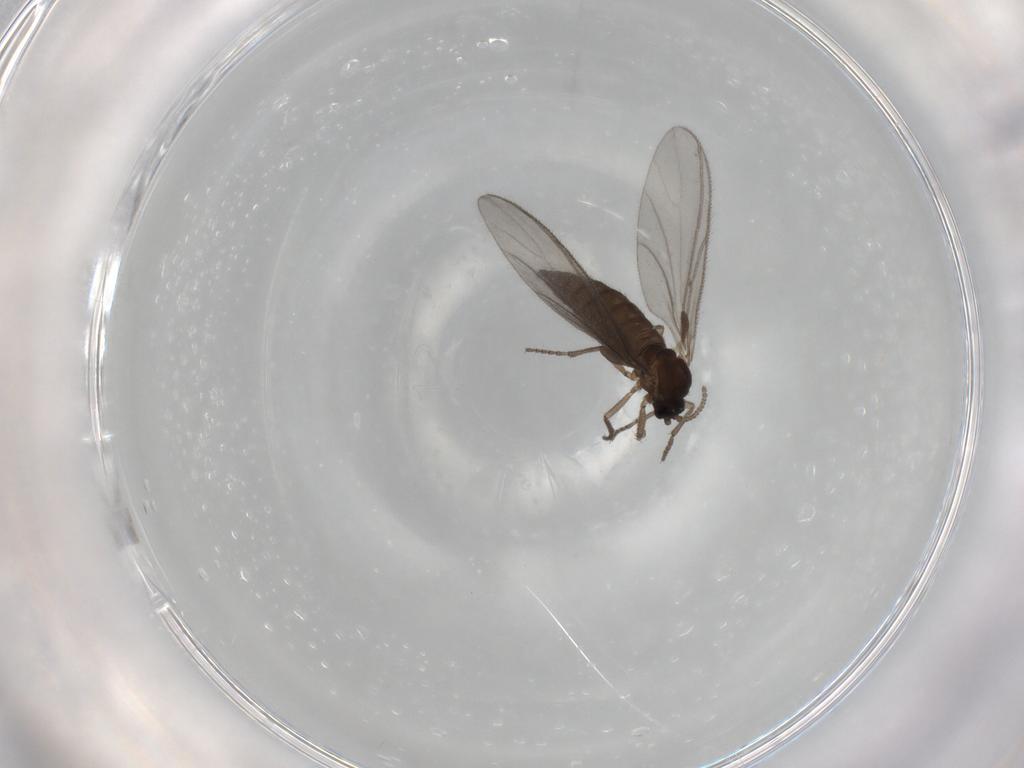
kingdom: Animalia
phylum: Arthropoda
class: Insecta
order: Diptera
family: Sciaridae
